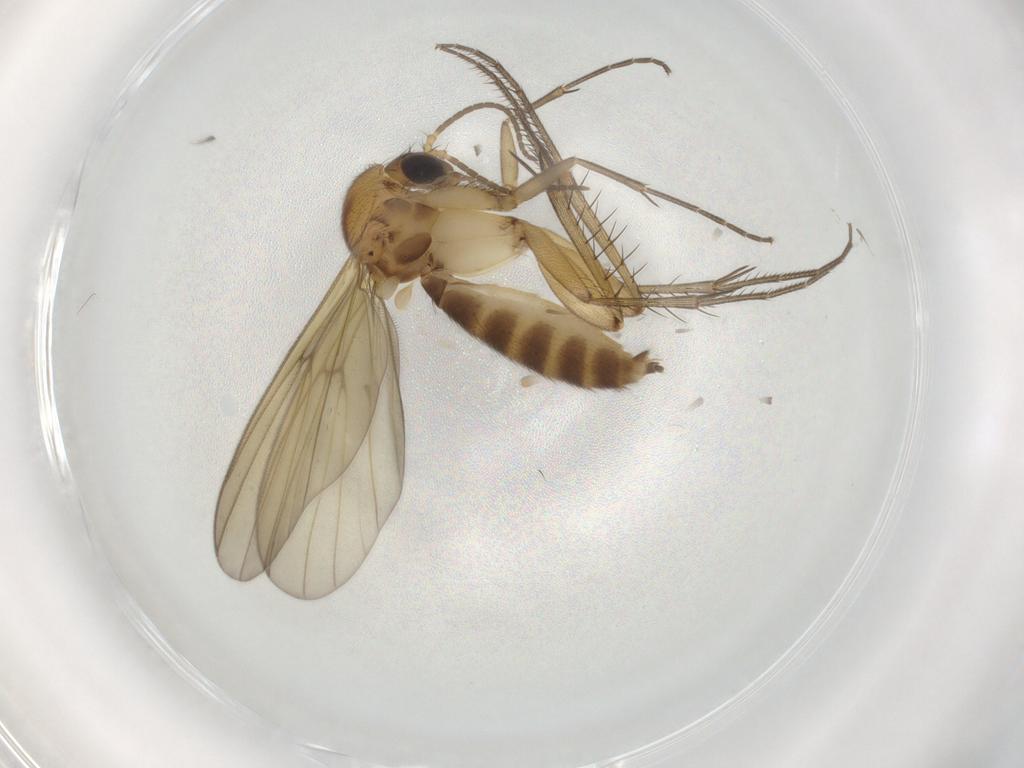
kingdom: Animalia
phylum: Arthropoda
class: Insecta
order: Diptera
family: Mycetophilidae
